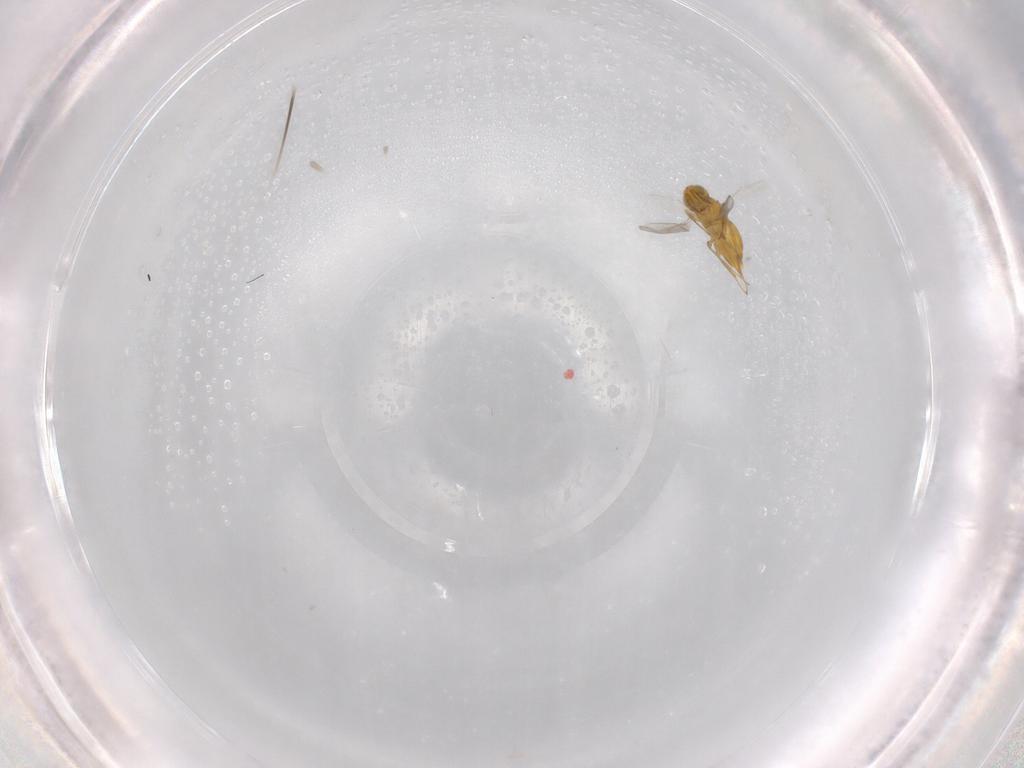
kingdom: Animalia
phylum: Arthropoda
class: Insecta
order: Hymenoptera
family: Aphelinidae
